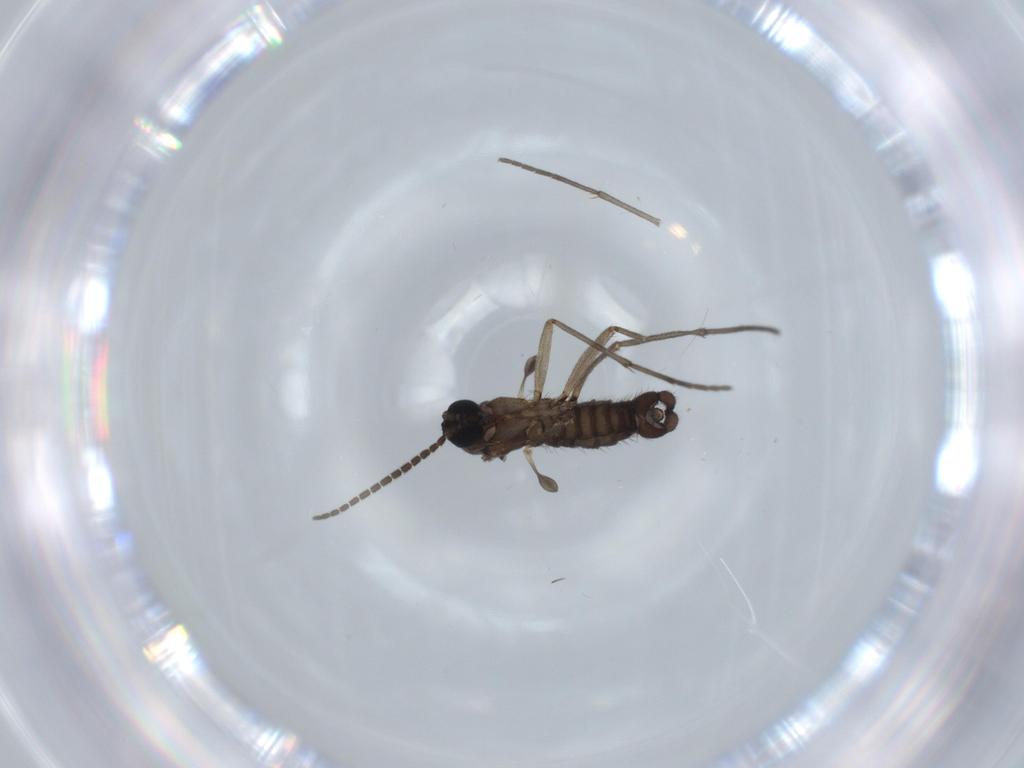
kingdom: Animalia
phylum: Arthropoda
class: Insecta
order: Diptera
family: Sciaridae
